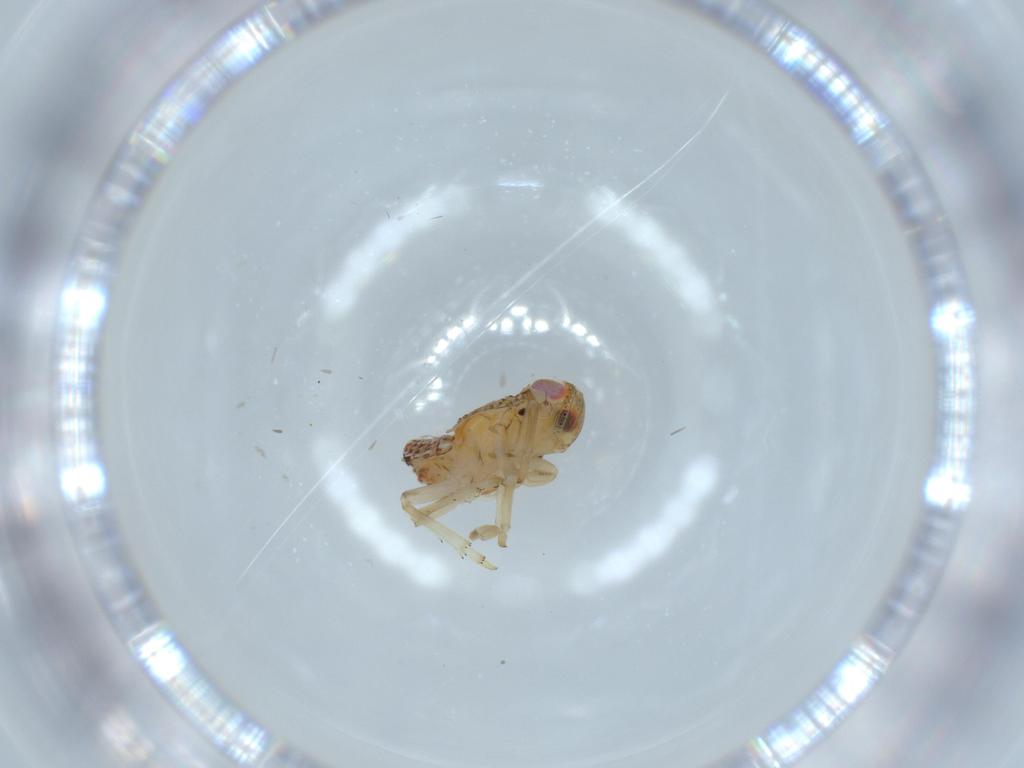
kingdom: Animalia
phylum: Arthropoda
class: Insecta
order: Hemiptera
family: Issidae
